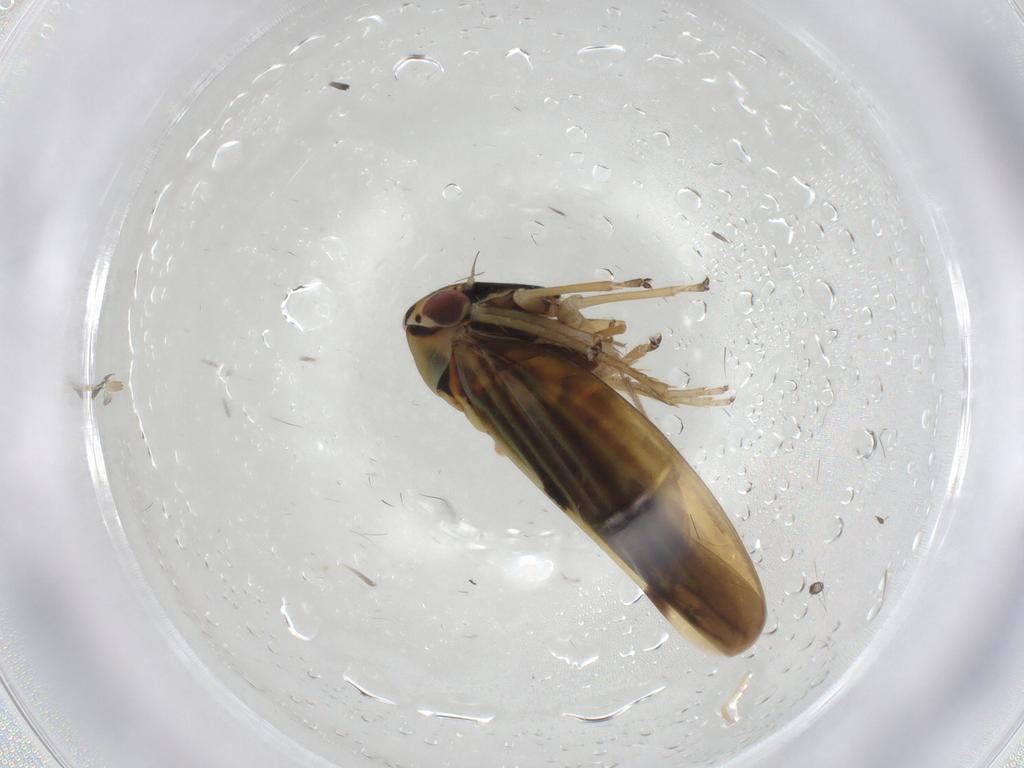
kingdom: Animalia
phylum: Arthropoda
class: Insecta
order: Hemiptera
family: Cicadellidae
